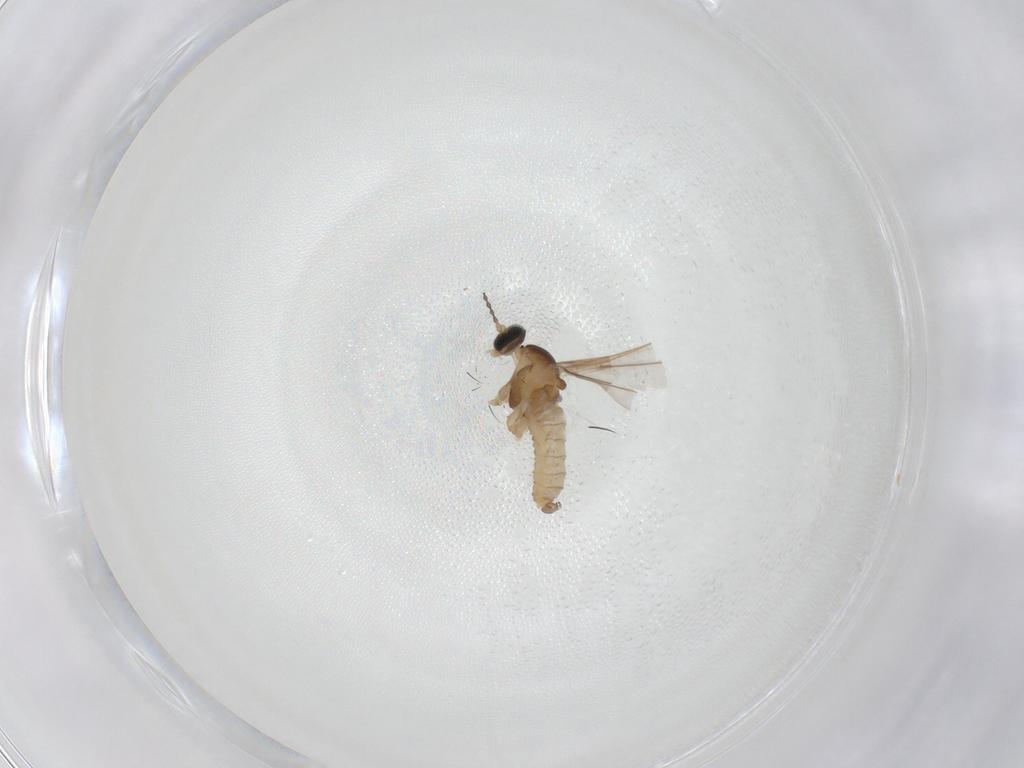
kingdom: Animalia
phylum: Arthropoda
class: Insecta
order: Diptera
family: Cecidomyiidae
